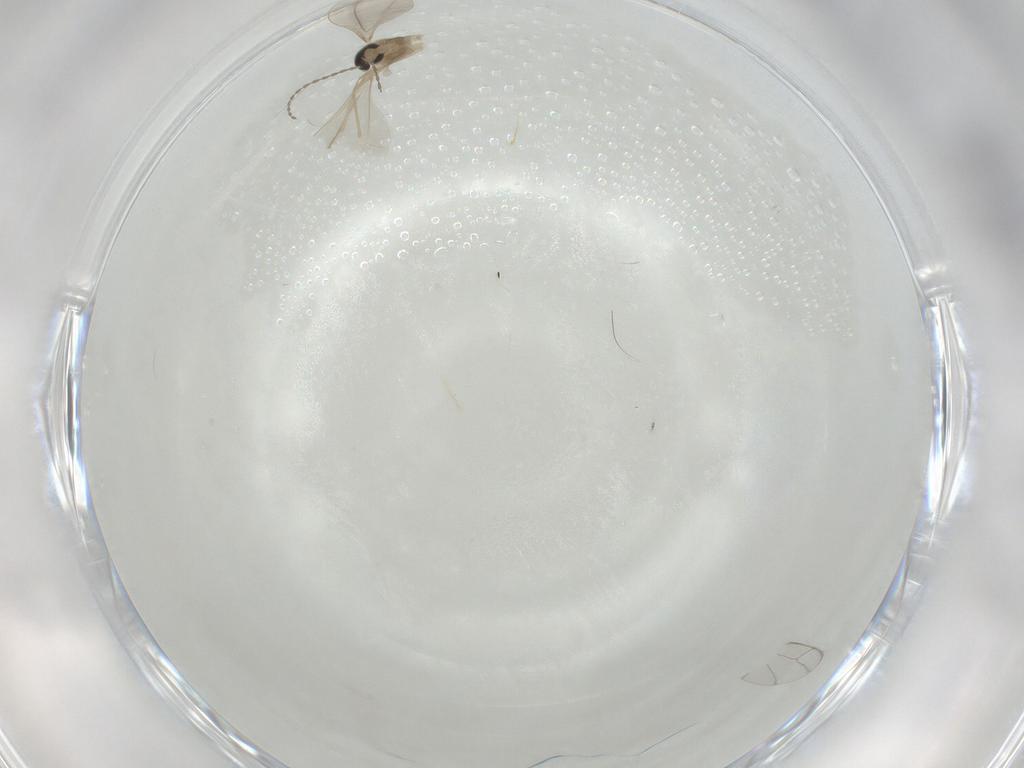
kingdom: Animalia
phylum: Arthropoda
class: Insecta
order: Diptera
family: Cecidomyiidae
